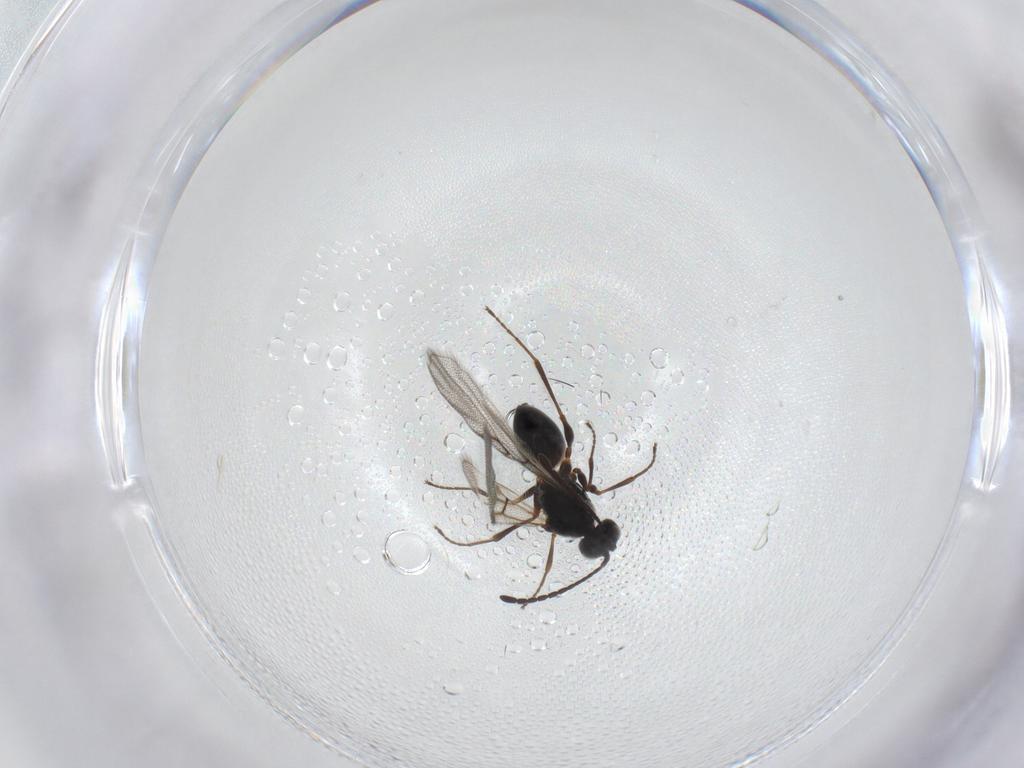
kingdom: Animalia
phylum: Arthropoda
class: Insecta
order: Hymenoptera
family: Figitidae
